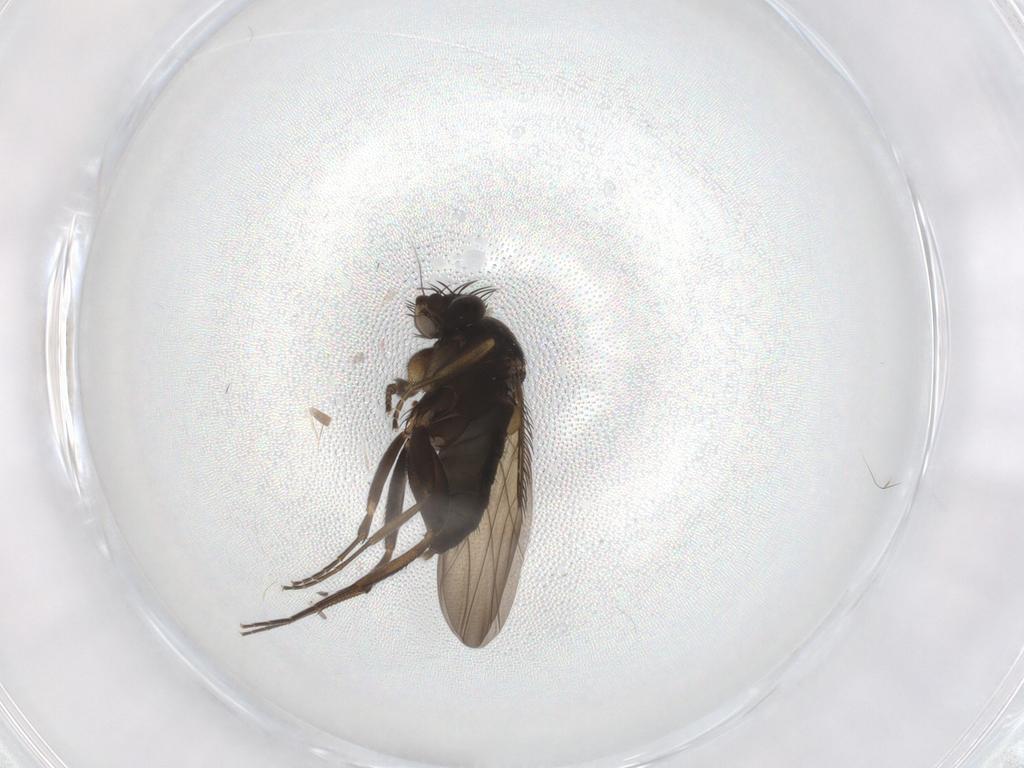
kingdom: Animalia
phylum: Arthropoda
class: Insecta
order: Diptera
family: Phoridae
